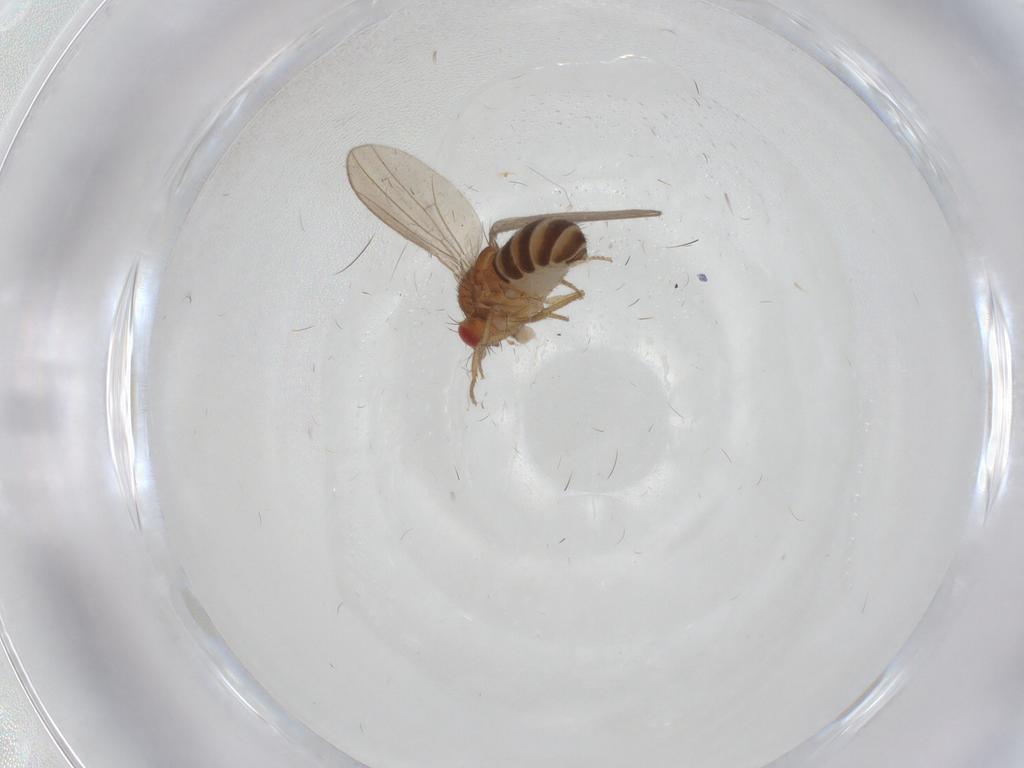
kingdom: Animalia
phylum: Arthropoda
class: Insecta
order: Diptera
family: Drosophilidae
